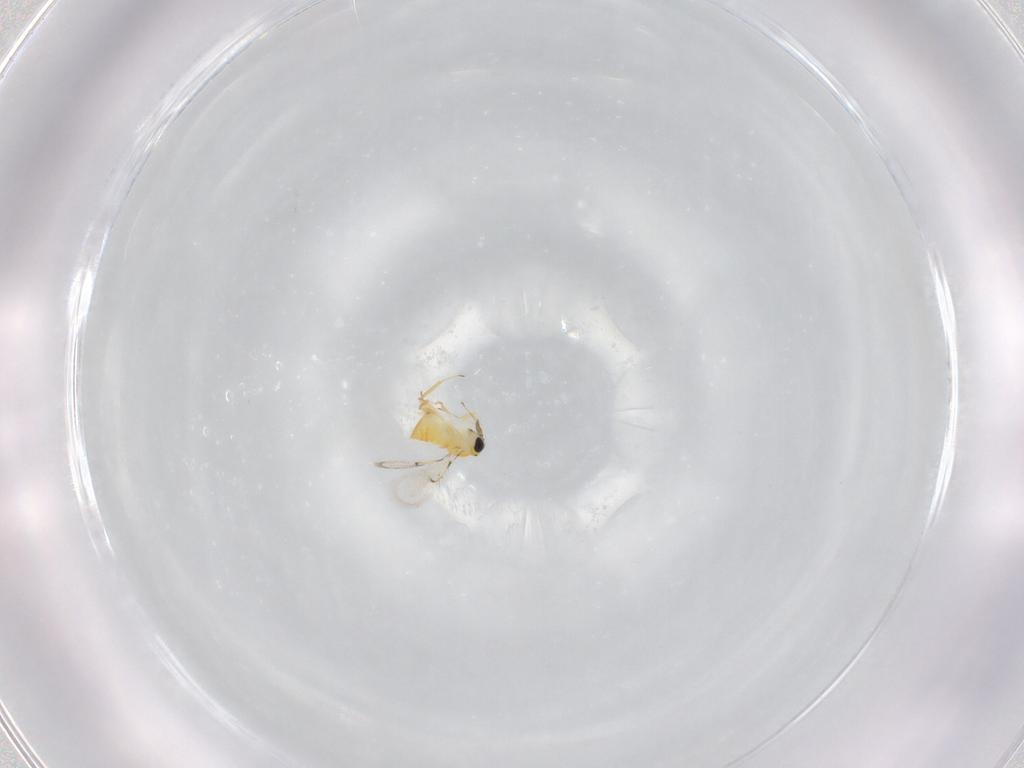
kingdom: Animalia
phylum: Arthropoda
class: Insecta
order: Hymenoptera
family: Trichogrammatidae
